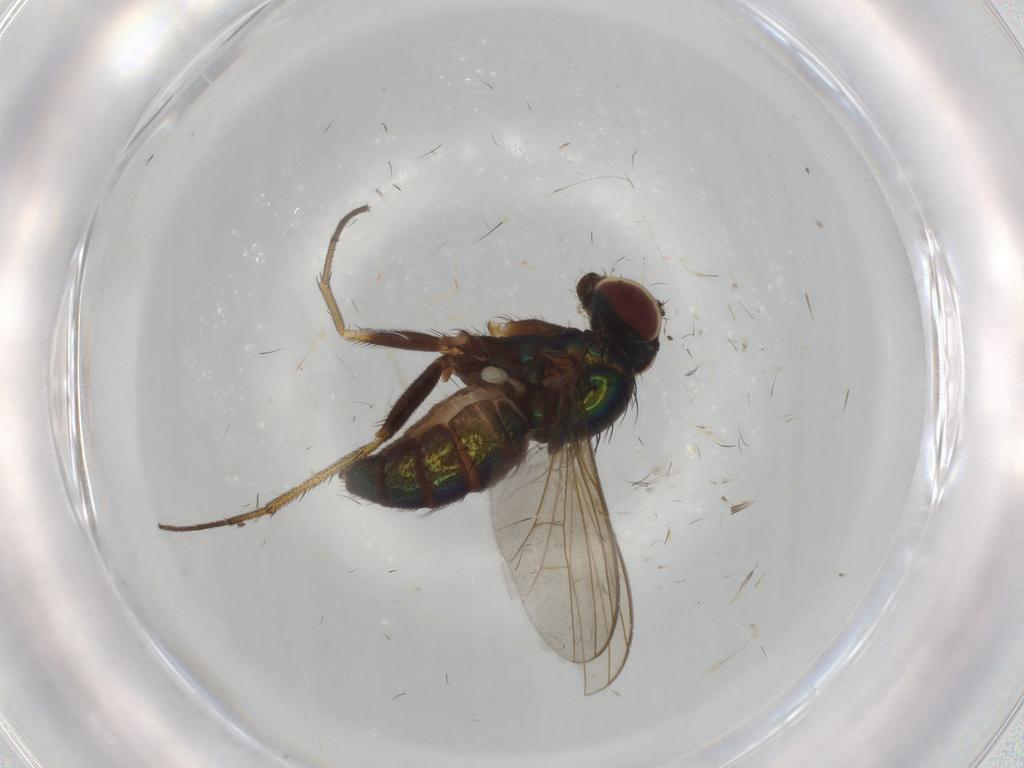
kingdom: Animalia
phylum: Arthropoda
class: Insecta
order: Diptera
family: Dolichopodidae
